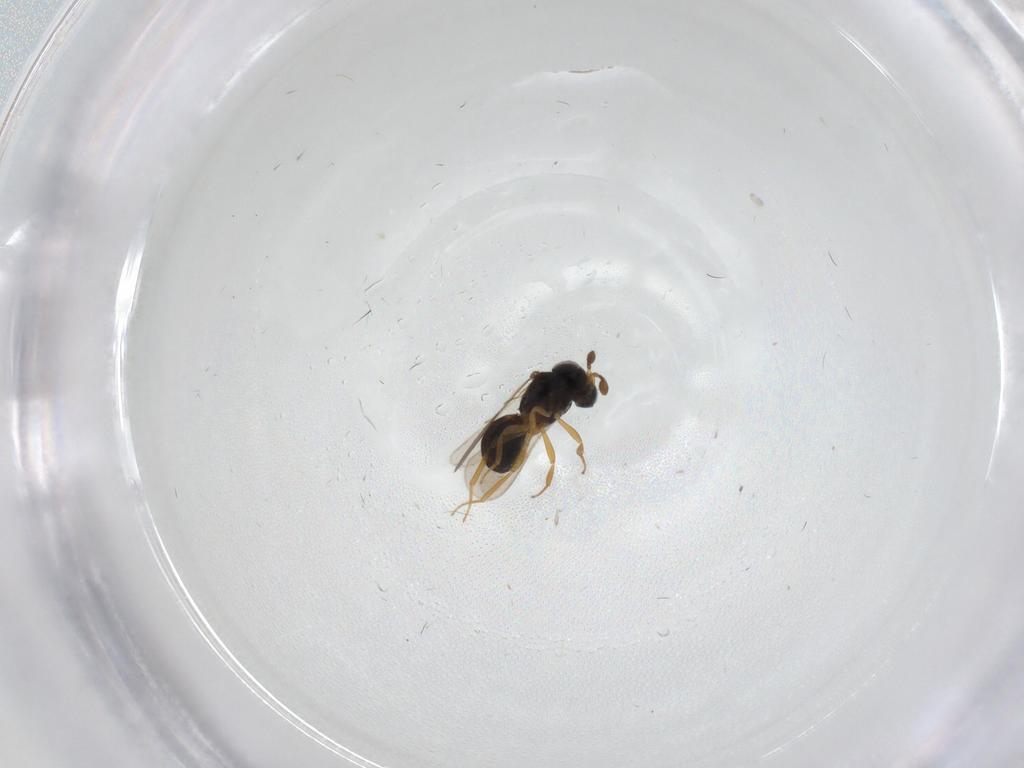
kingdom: Animalia
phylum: Arthropoda
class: Insecta
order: Hymenoptera
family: Scelionidae
